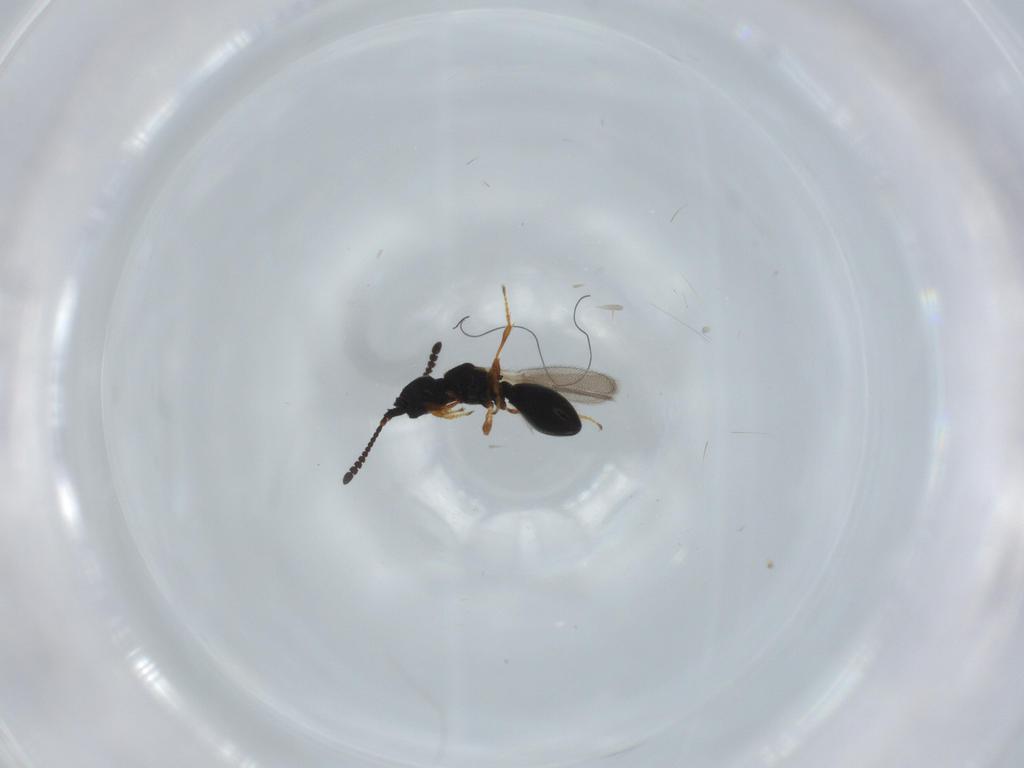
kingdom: Animalia
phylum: Arthropoda
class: Insecta
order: Hymenoptera
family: Diapriidae
